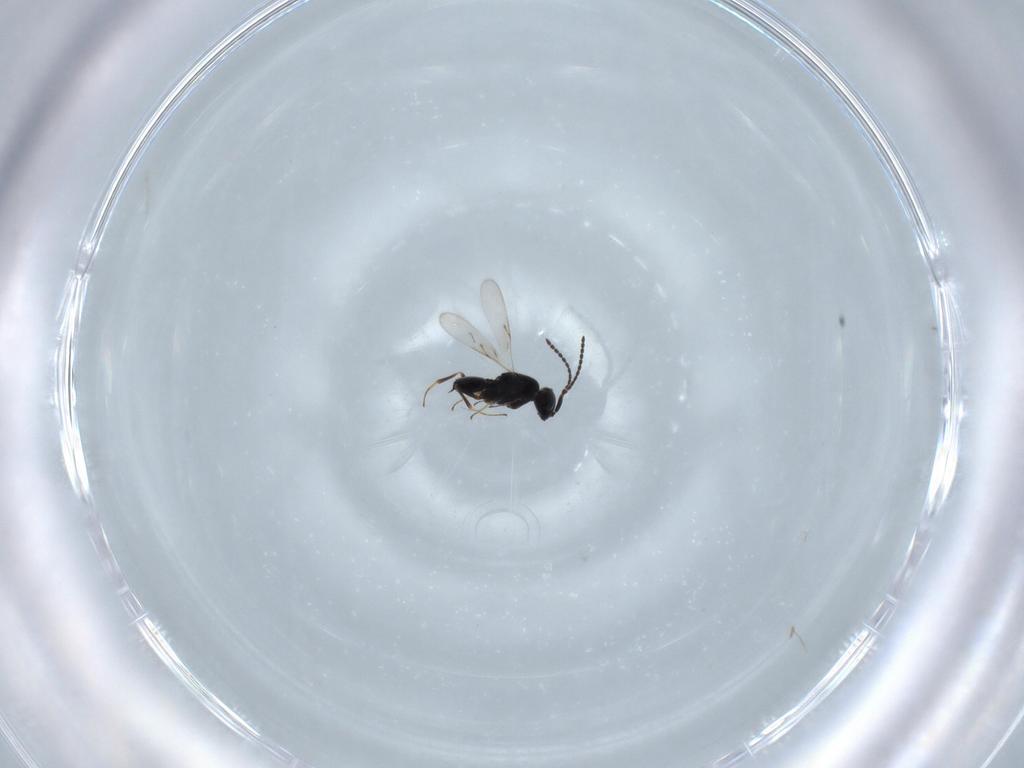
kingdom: Animalia
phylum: Arthropoda
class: Insecta
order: Hymenoptera
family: Scelionidae
